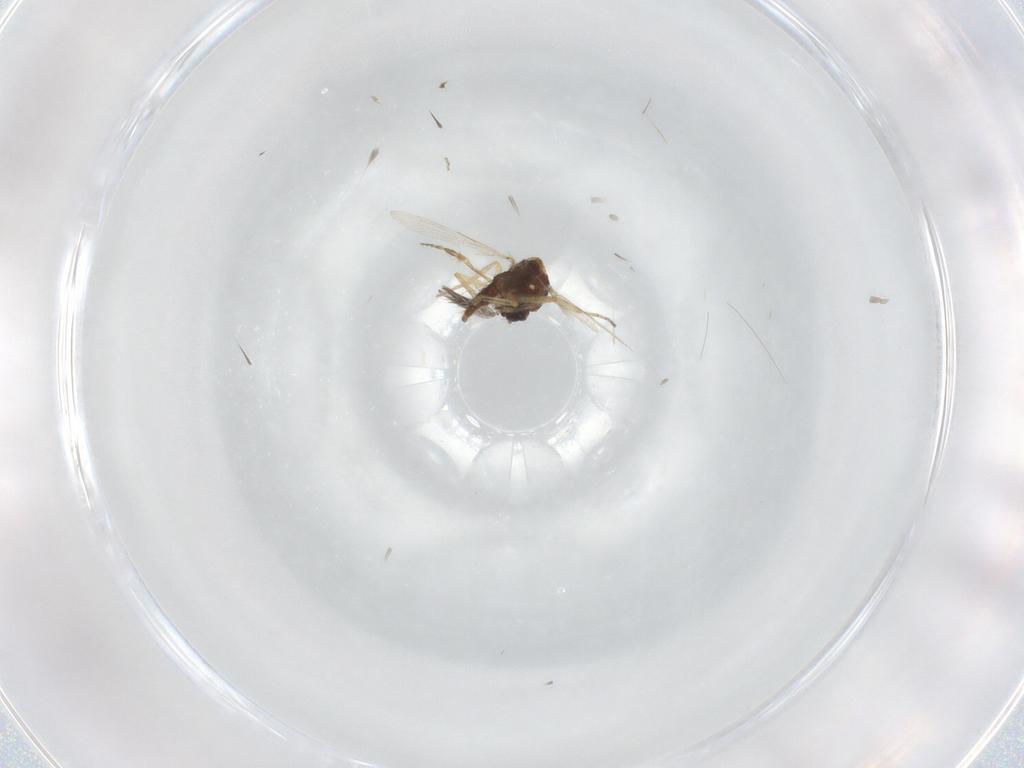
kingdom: Animalia
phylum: Arthropoda
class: Insecta
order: Diptera
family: Ceratopogonidae
